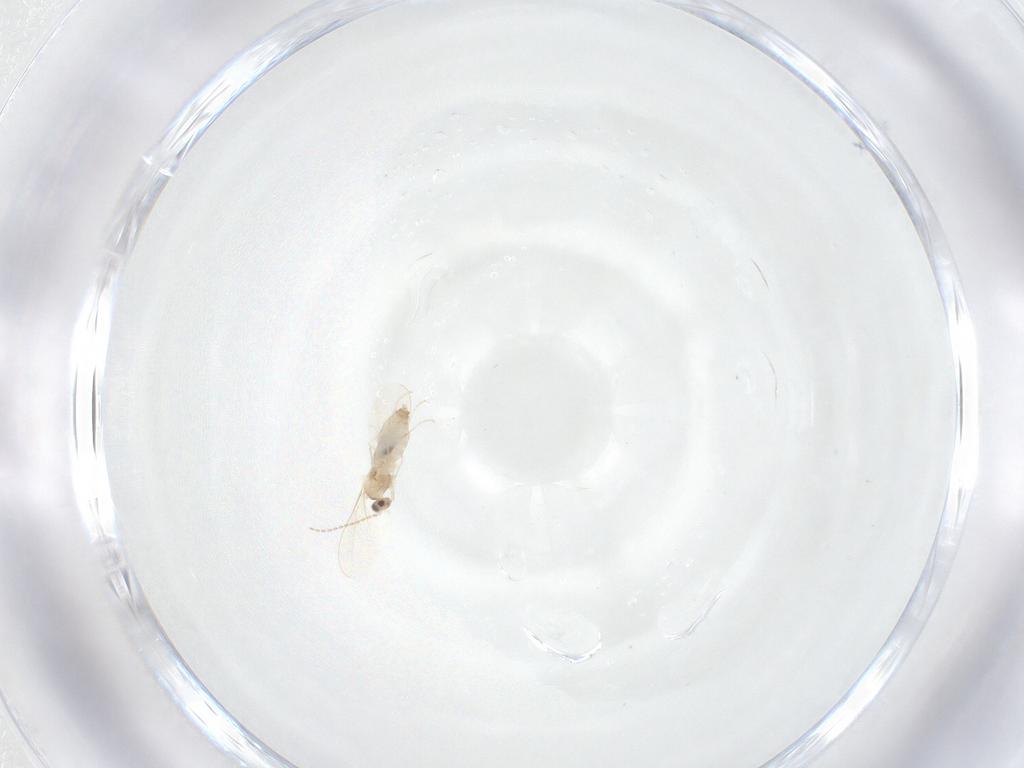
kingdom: Animalia
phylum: Arthropoda
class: Insecta
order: Diptera
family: Cecidomyiidae
